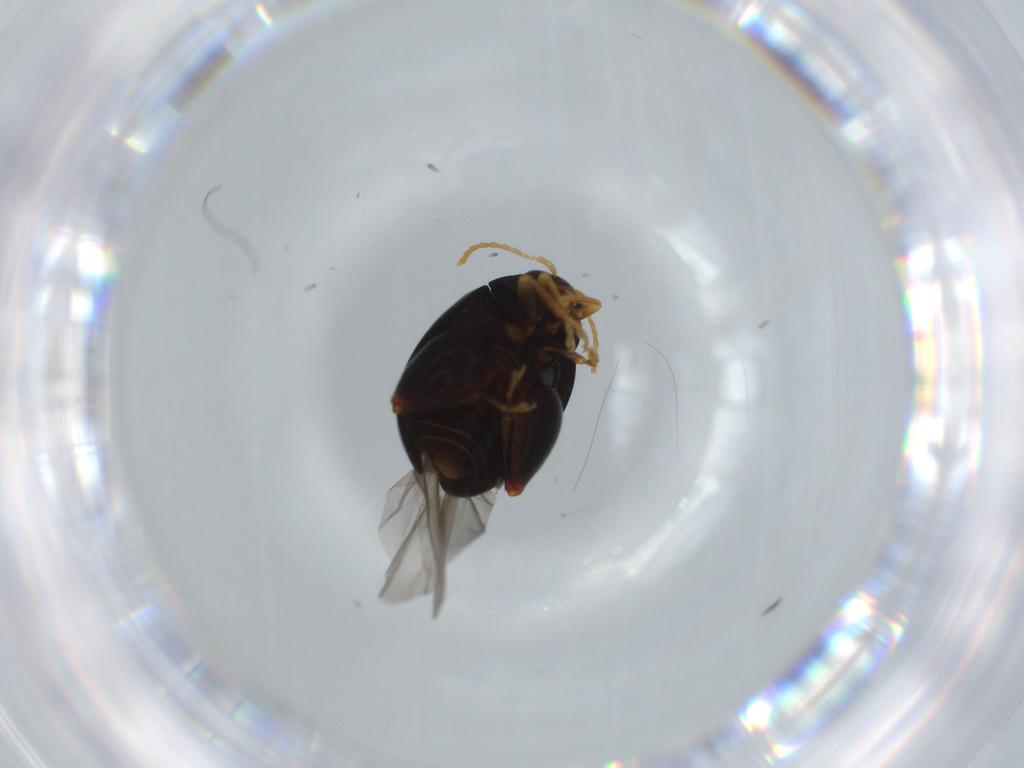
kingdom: Animalia
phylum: Arthropoda
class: Insecta
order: Coleoptera
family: Chrysomelidae
